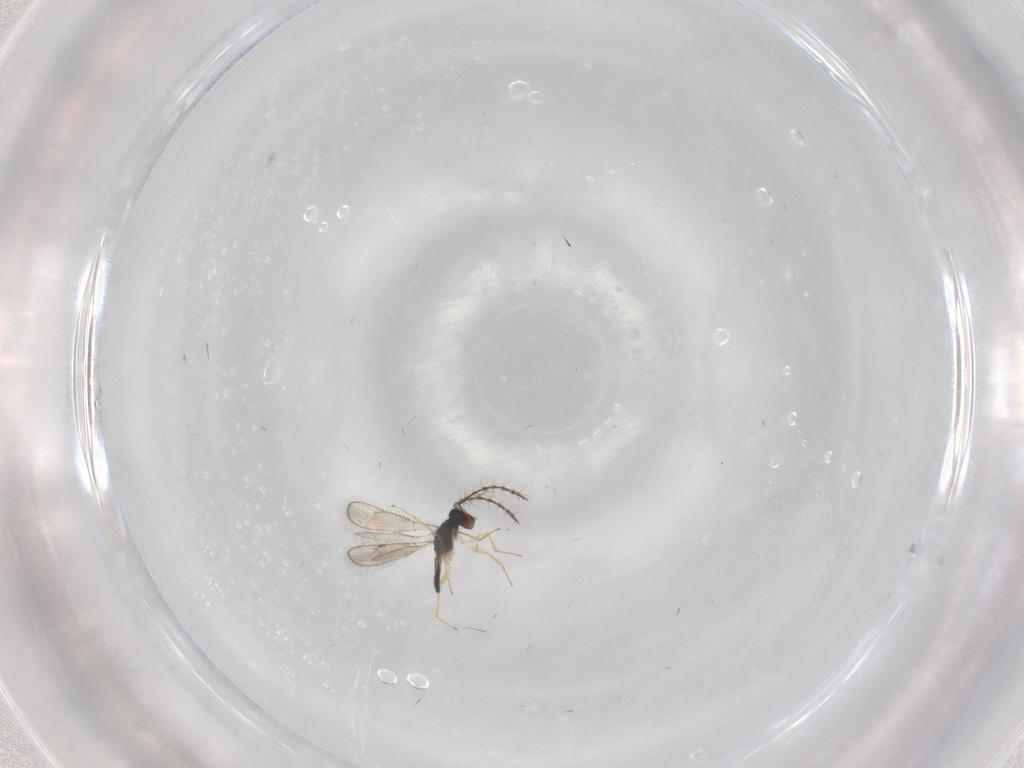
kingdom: Animalia
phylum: Arthropoda
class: Insecta
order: Hymenoptera
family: Pteromalidae
